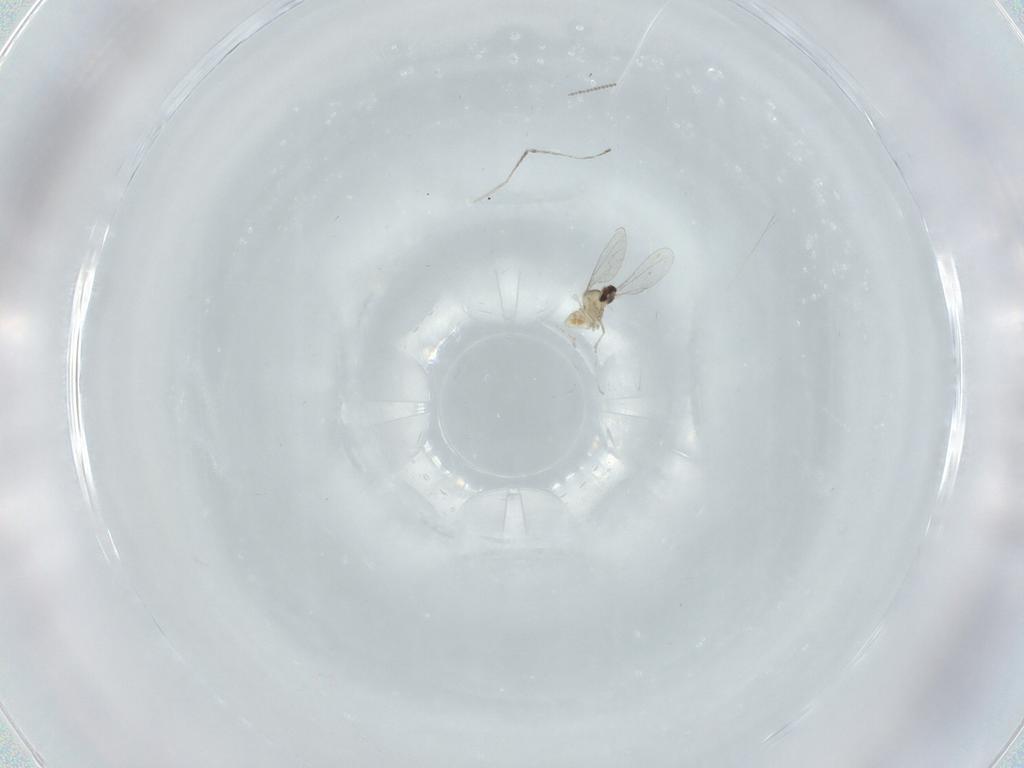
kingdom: Animalia
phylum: Arthropoda
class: Insecta
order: Diptera
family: Cecidomyiidae
